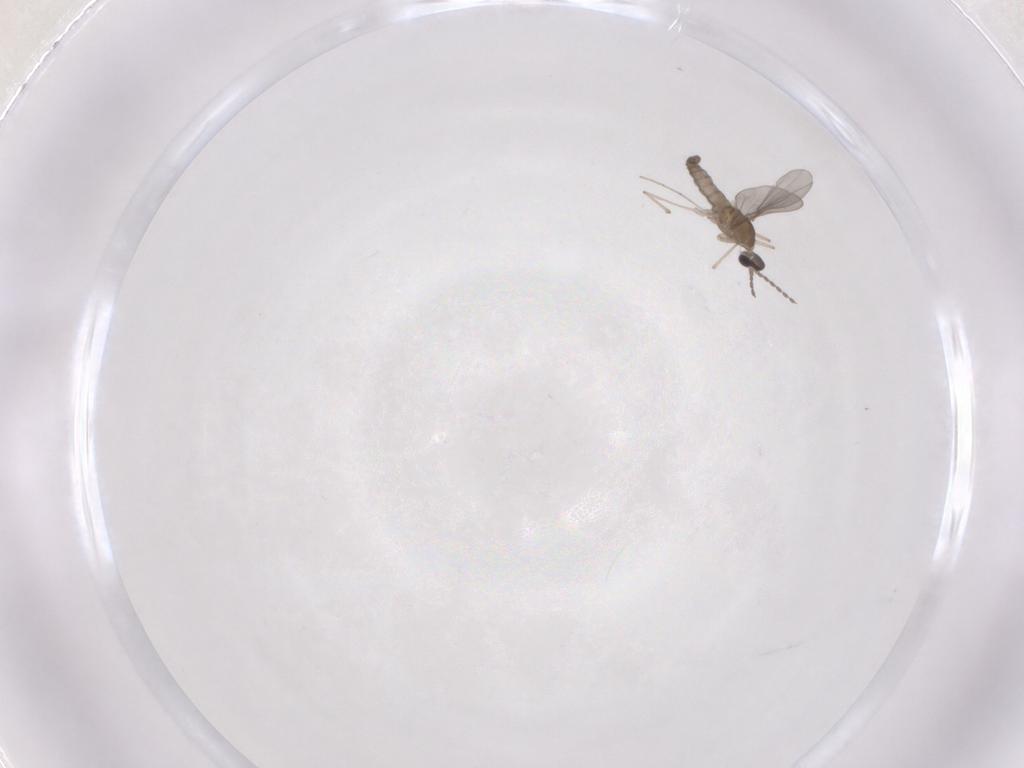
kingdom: Animalia
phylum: Arthropoda
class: Insecta
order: Diptera
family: Cecidomyiidae
